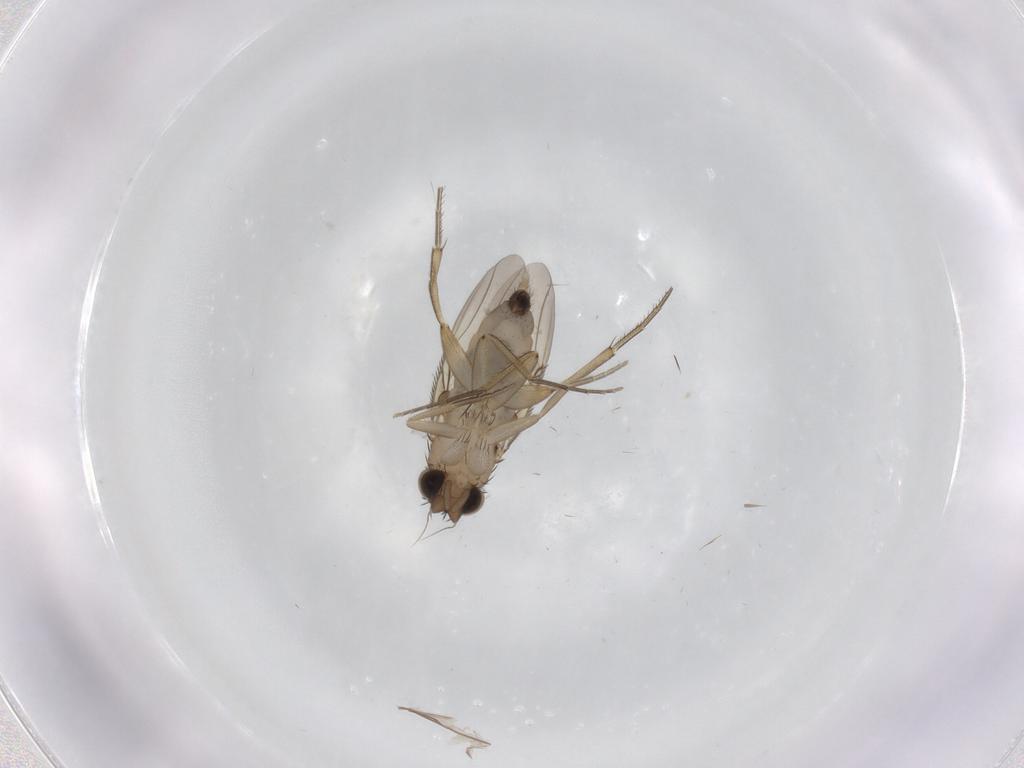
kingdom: Animalia
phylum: Arthropoda
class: Insecta
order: Diptera
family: Phoridae
